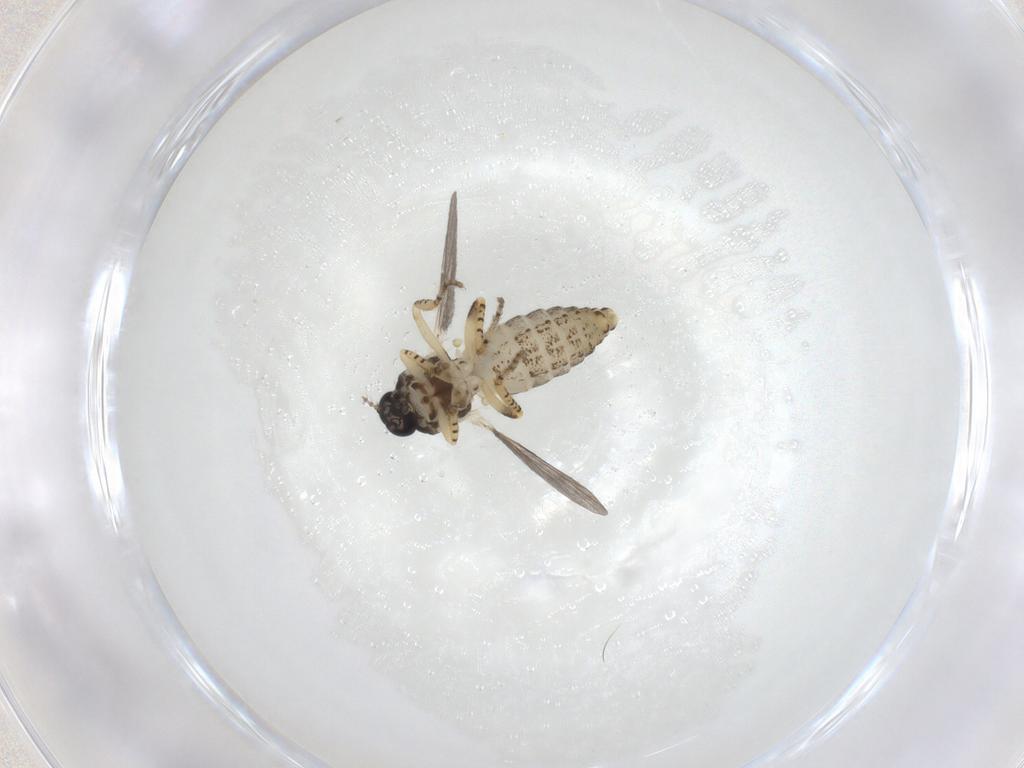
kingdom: Animalia
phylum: Arthropoda
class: Insecta
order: Diptera
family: Ceratopogonidae
